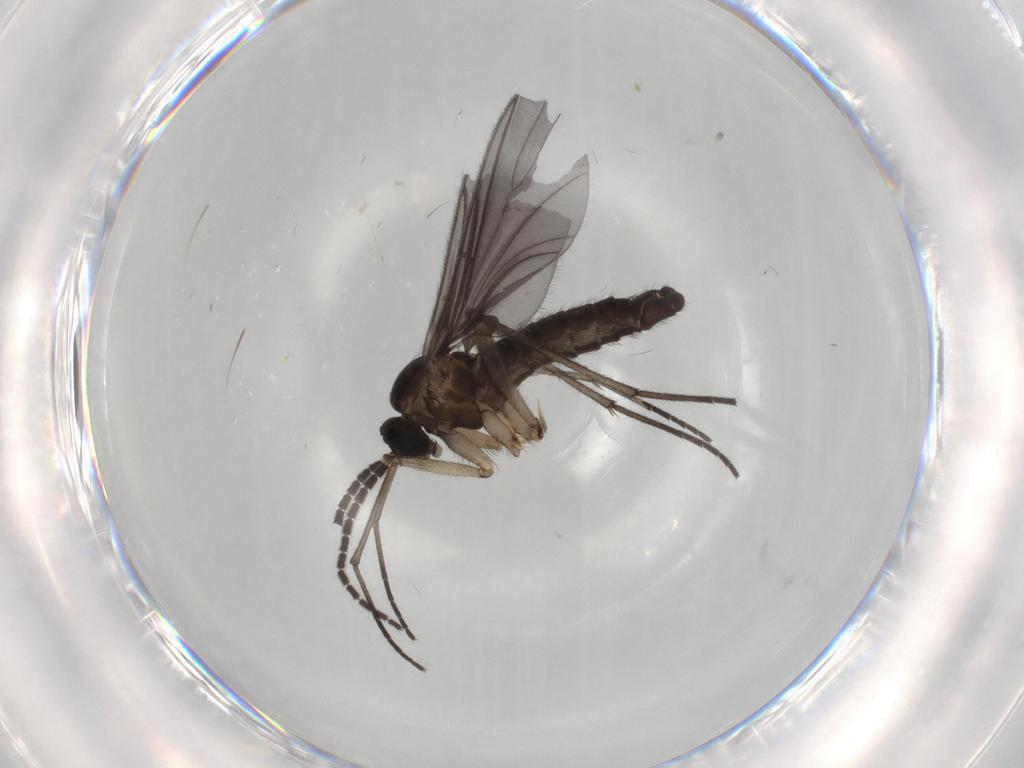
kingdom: Animalia
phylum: Arthropoda
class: Insecta
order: Diptera
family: Sciaridae
